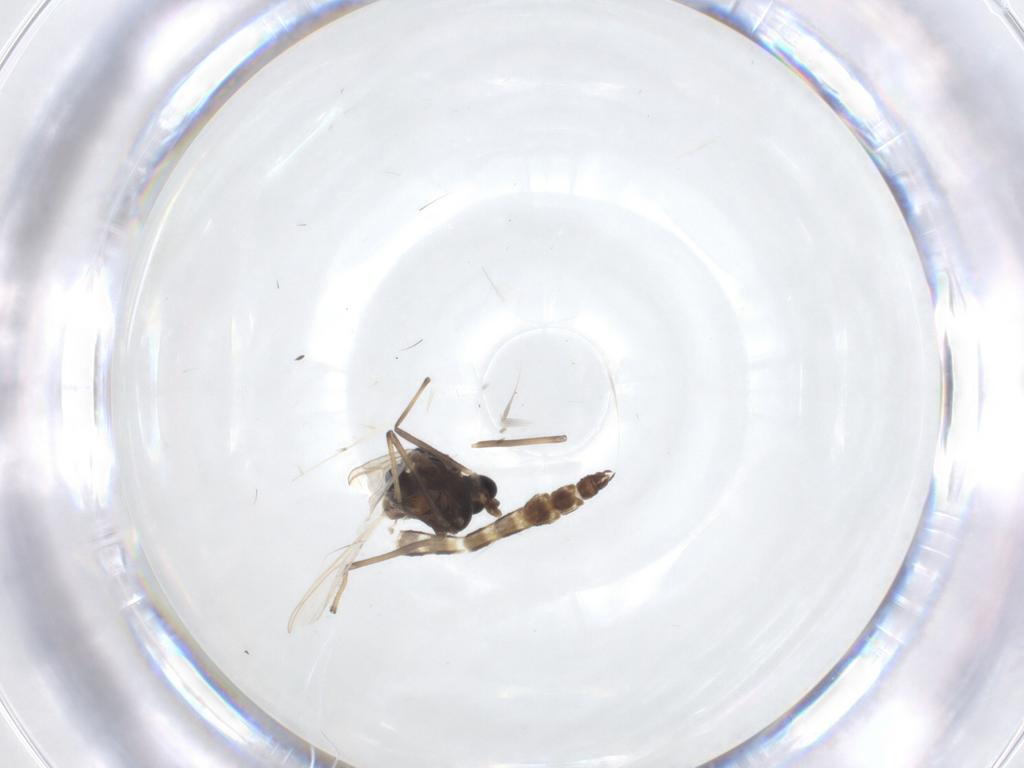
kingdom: Animalia
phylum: Arthropoda
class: Insecta
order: Diptera
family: Chironomidae
